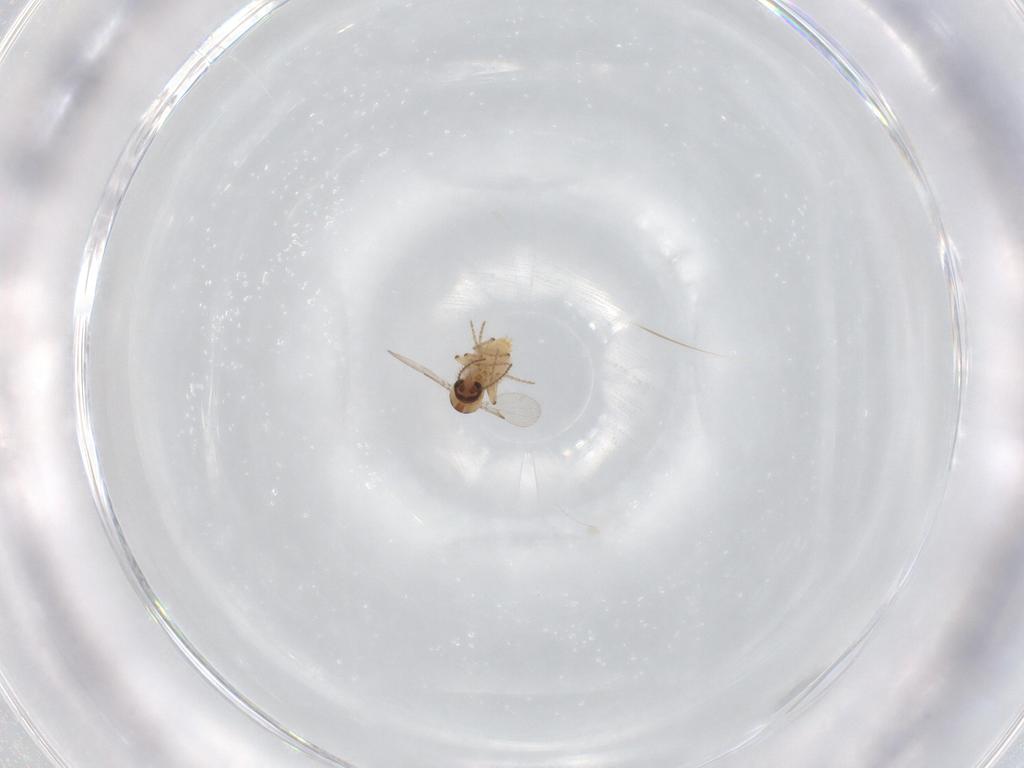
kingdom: Animalia
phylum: Arthropoda
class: Insecta
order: Diptera
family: Ceratopogonidae
